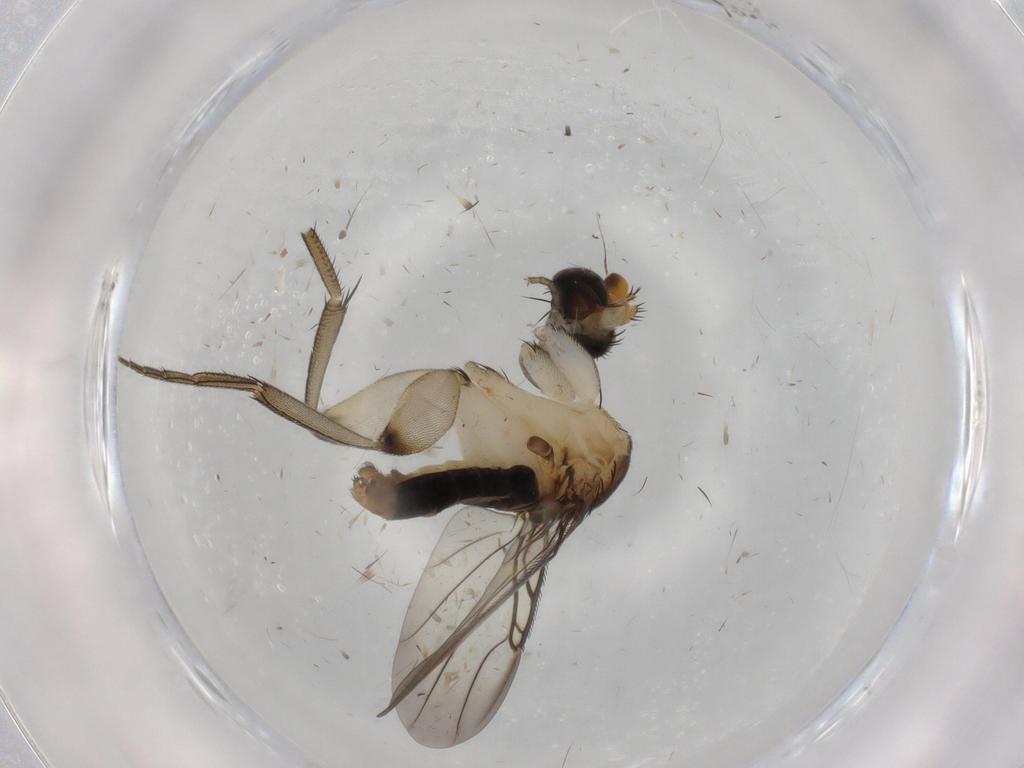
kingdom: Animalia
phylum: Arthropoda
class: Insecta
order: Diptera
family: Phoridae
